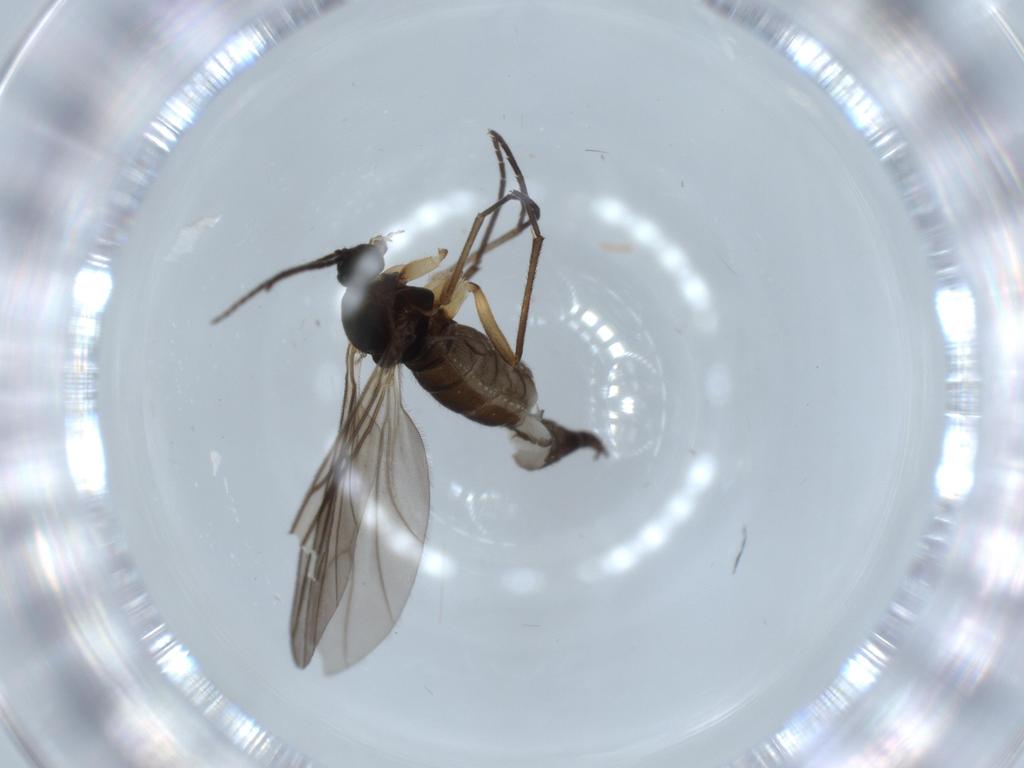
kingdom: Animalia
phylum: Arthropoda
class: Insecta
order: Diptera
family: Sciaridae
